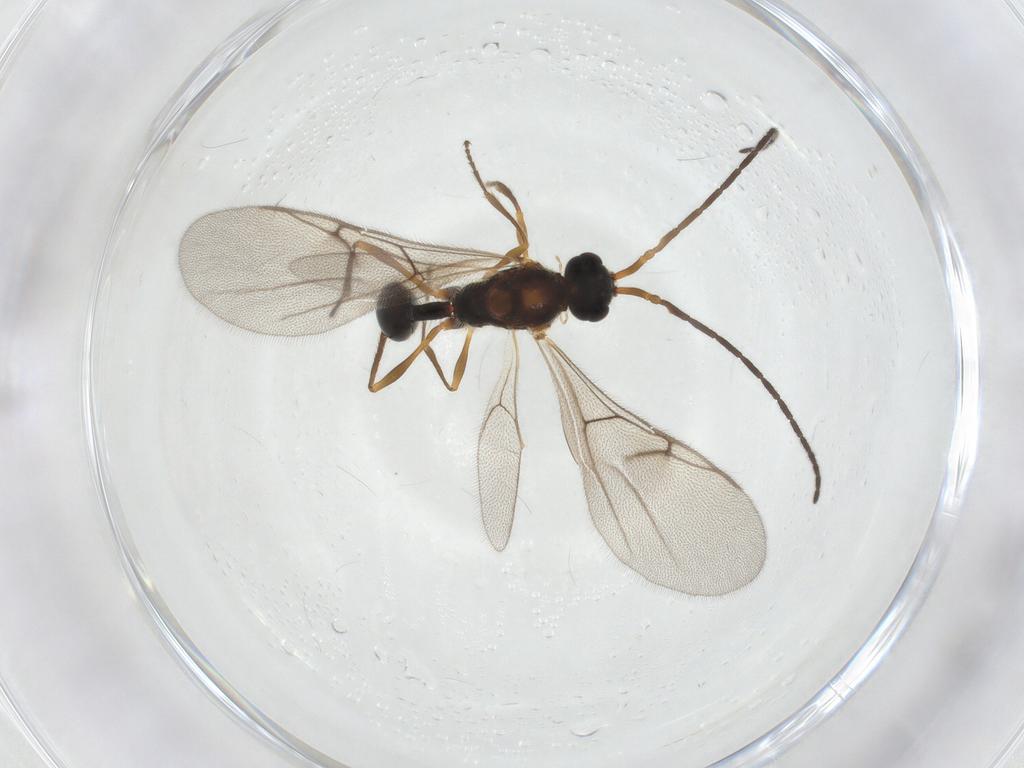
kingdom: Animalia
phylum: Arthropoda
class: Insecta
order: Hymenoptera
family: Diapriidae
